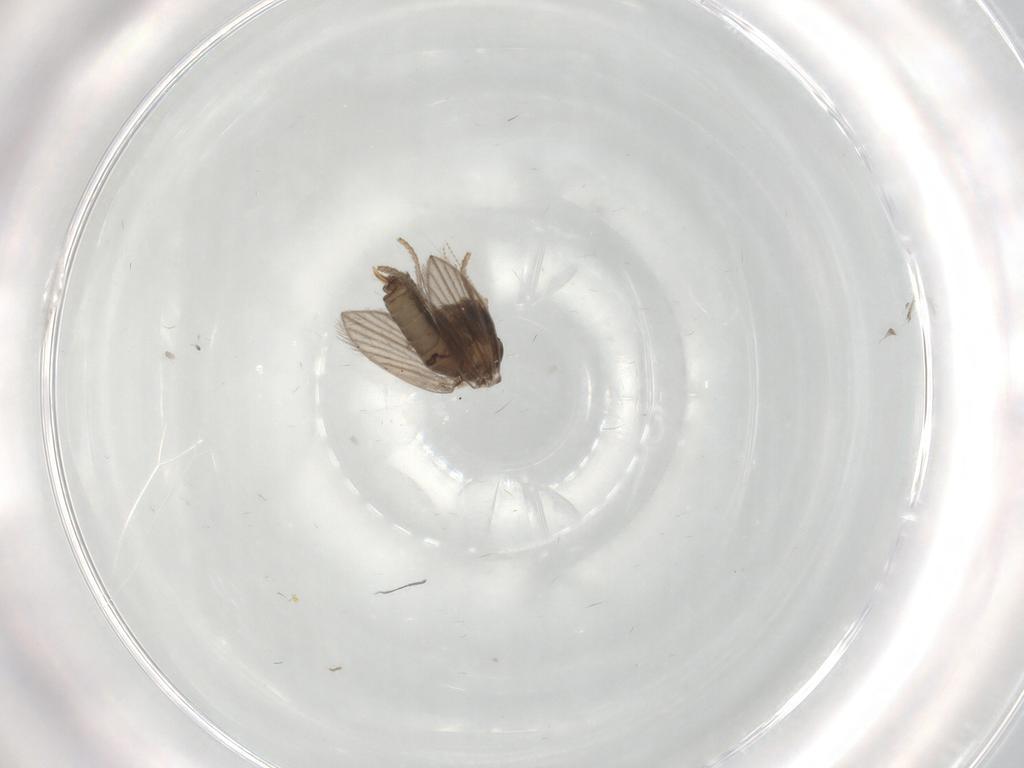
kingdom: Animalia
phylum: Arthropoda
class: Insecta
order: Diptera
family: Psychodidae
